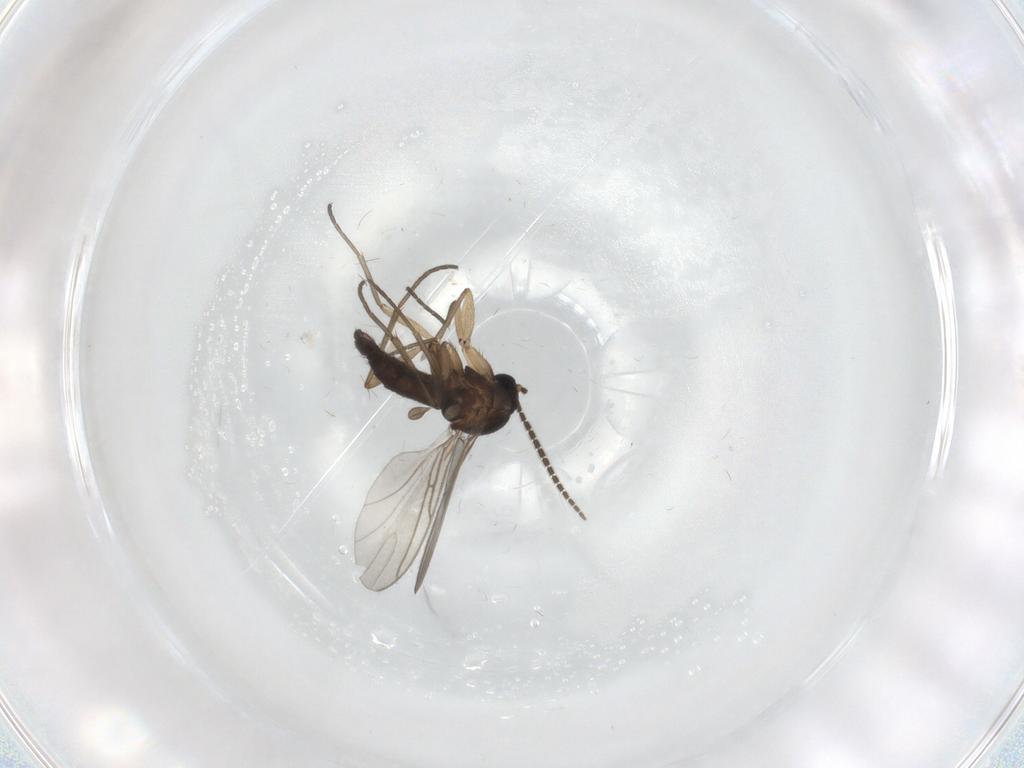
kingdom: Animalia
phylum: Arthropoda
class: Insecta
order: Diptera
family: Sciaridae
